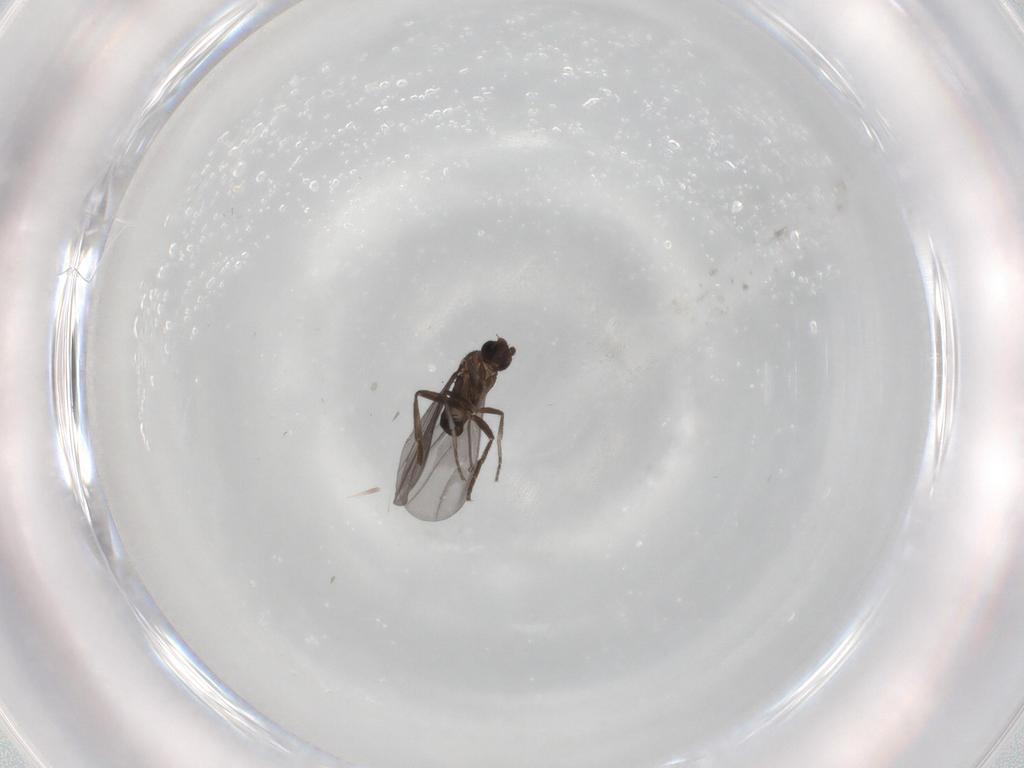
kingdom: Animalia
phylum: Arthropoda
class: Insecta
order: Diptera
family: Phoridae
